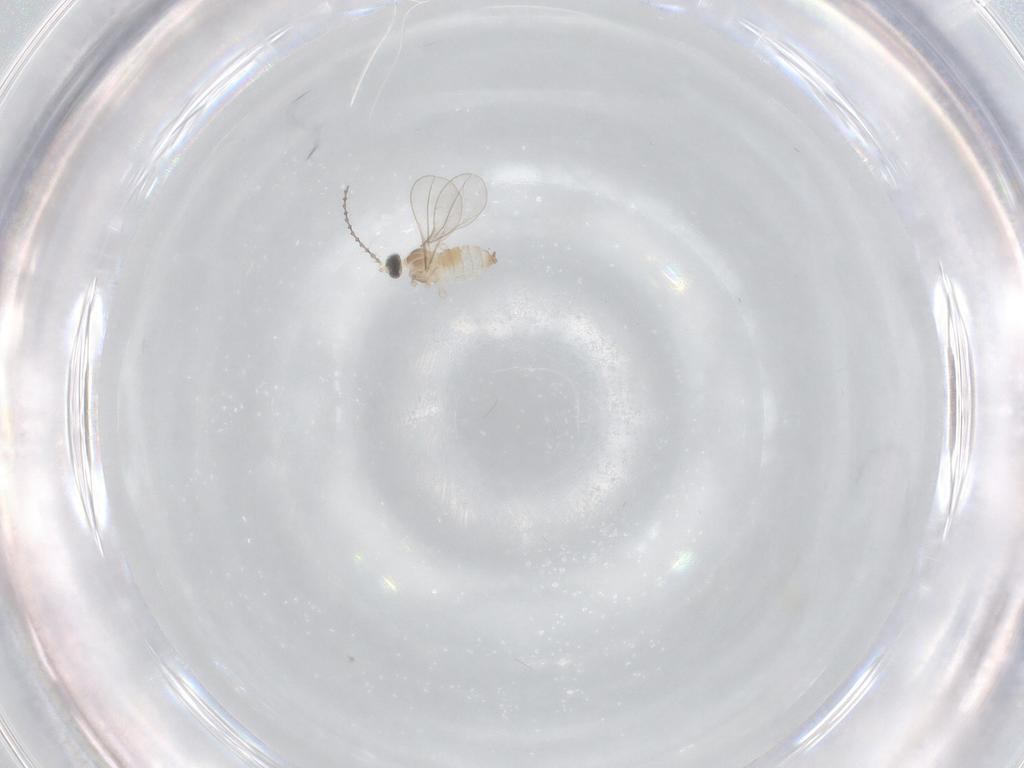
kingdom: Animalia
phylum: Arthropoda
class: Insecta
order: Diptera
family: Cecidomyiidae
